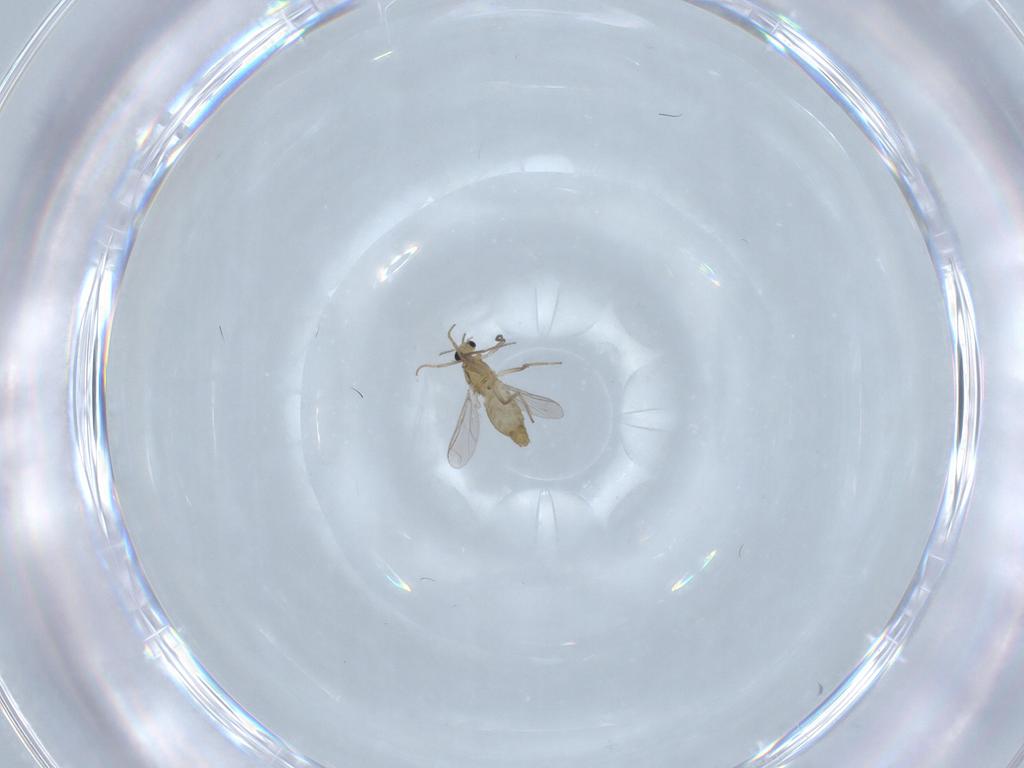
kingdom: Animalia
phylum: Arthropoda
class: Insecta
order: Diptera
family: Chironomidae
